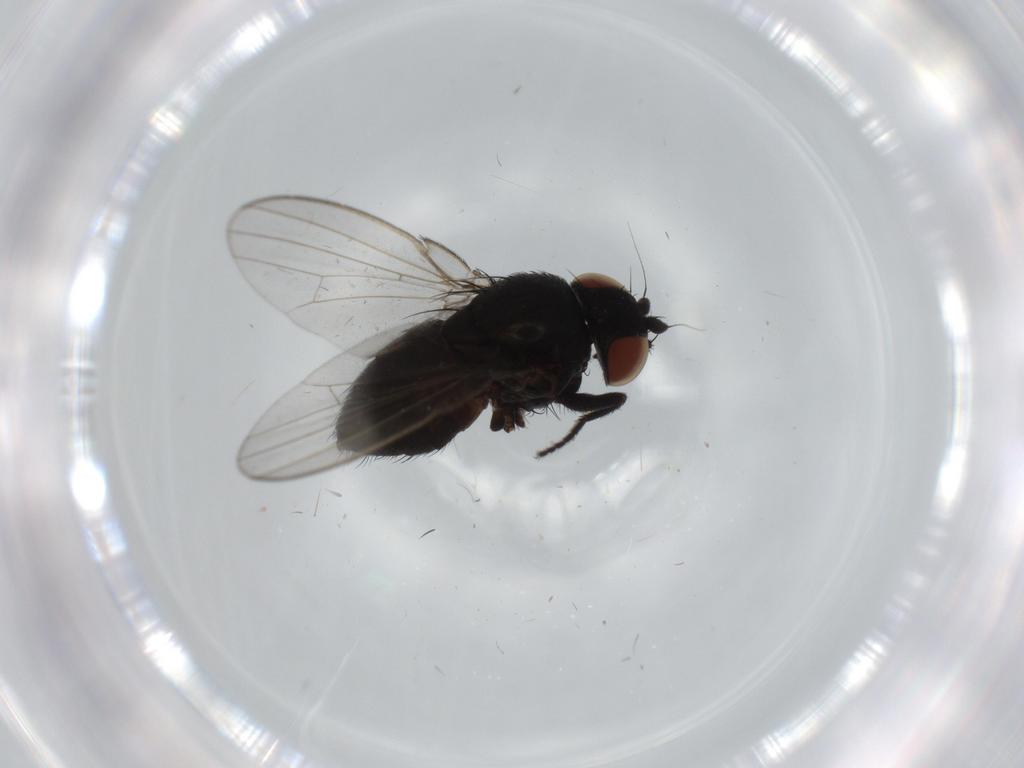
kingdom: Animalia
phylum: Arthropoda
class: Insecta
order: Diptera
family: Milichiidae
